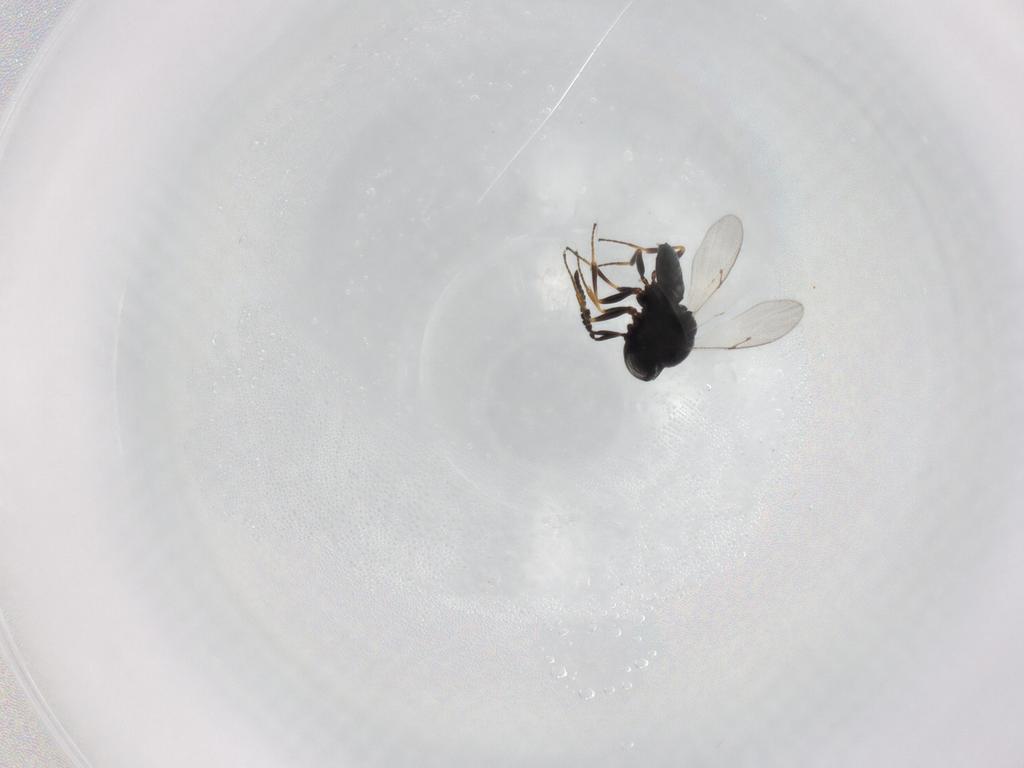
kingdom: Animalia
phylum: Arthropoda
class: Insecta
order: Hymenoptera
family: Scelionidae
